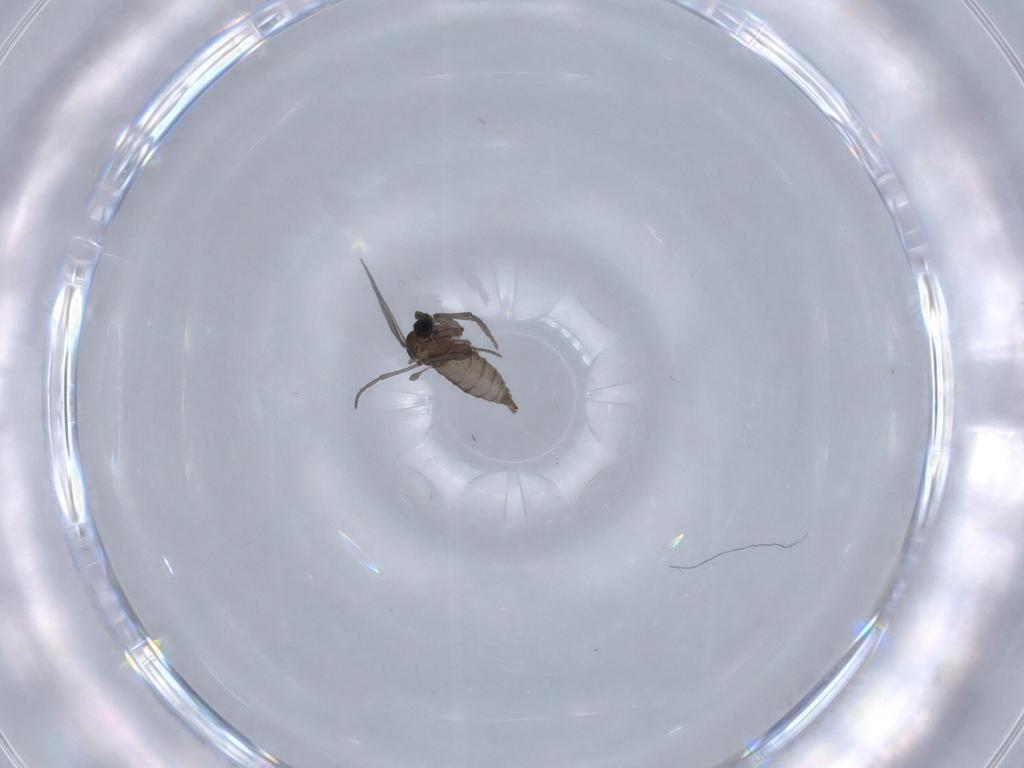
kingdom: Animalia
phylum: Arthropoda
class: Insecta
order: Diptera
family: Sciaridae
